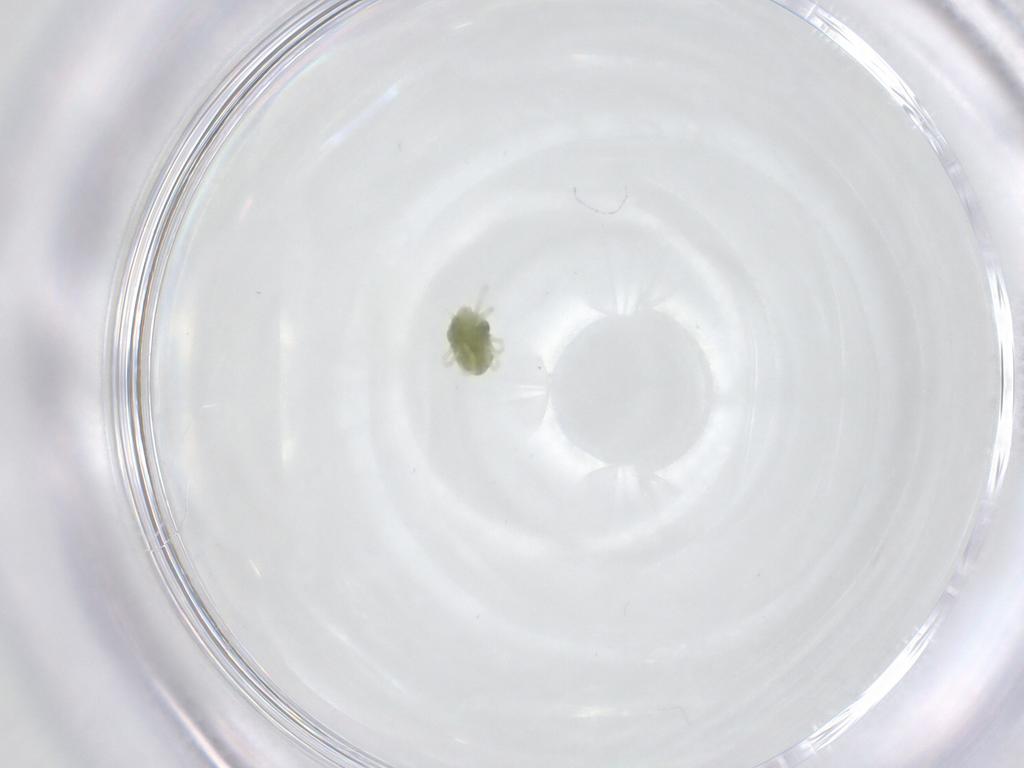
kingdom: Animalia
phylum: Arthropoda
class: Arachnida
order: Trombidiformes
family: Penthaleidae
